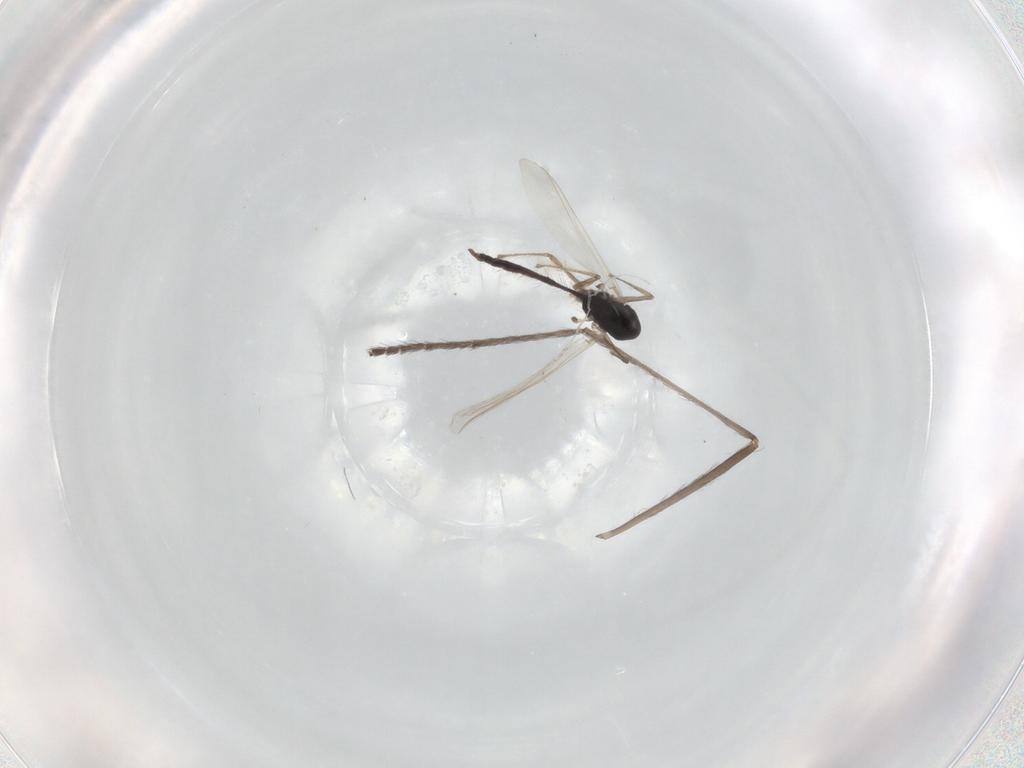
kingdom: Animalia
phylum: Arthropoda
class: Insecta
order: Diptera
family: Chironomidae
